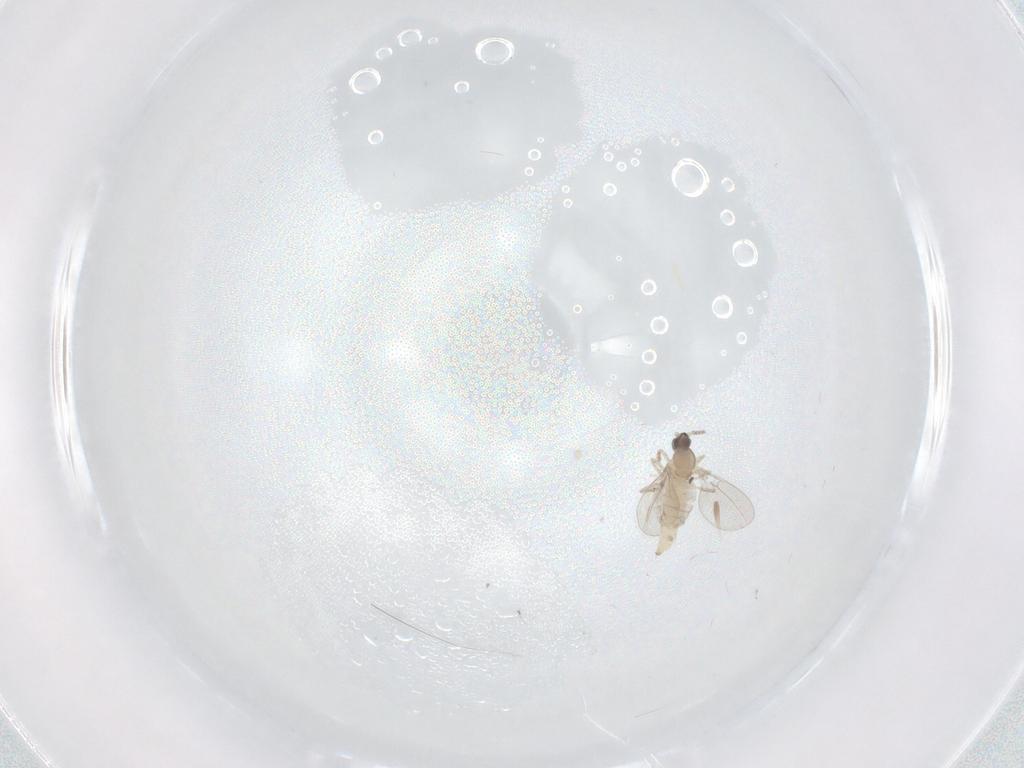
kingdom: Animalia
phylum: Arthropoda
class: Insecta
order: Diptera
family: Cecidomyiidae
